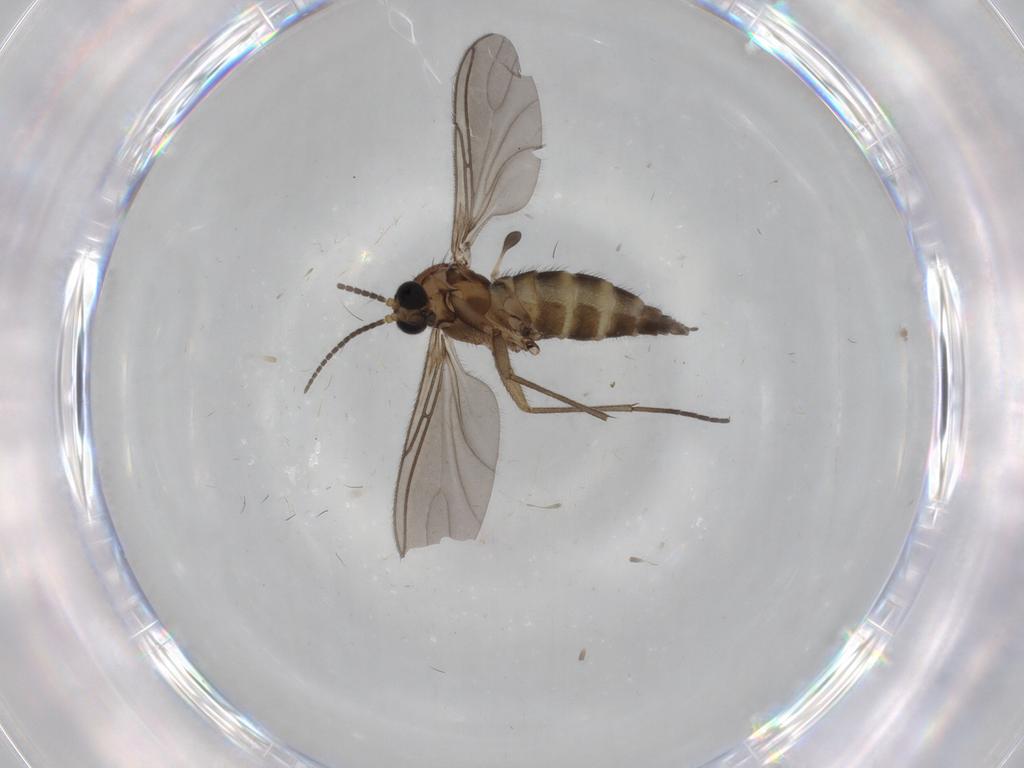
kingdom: Animalia
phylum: Arthropoda
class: Insecta
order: Diptera
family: Sciaridae
